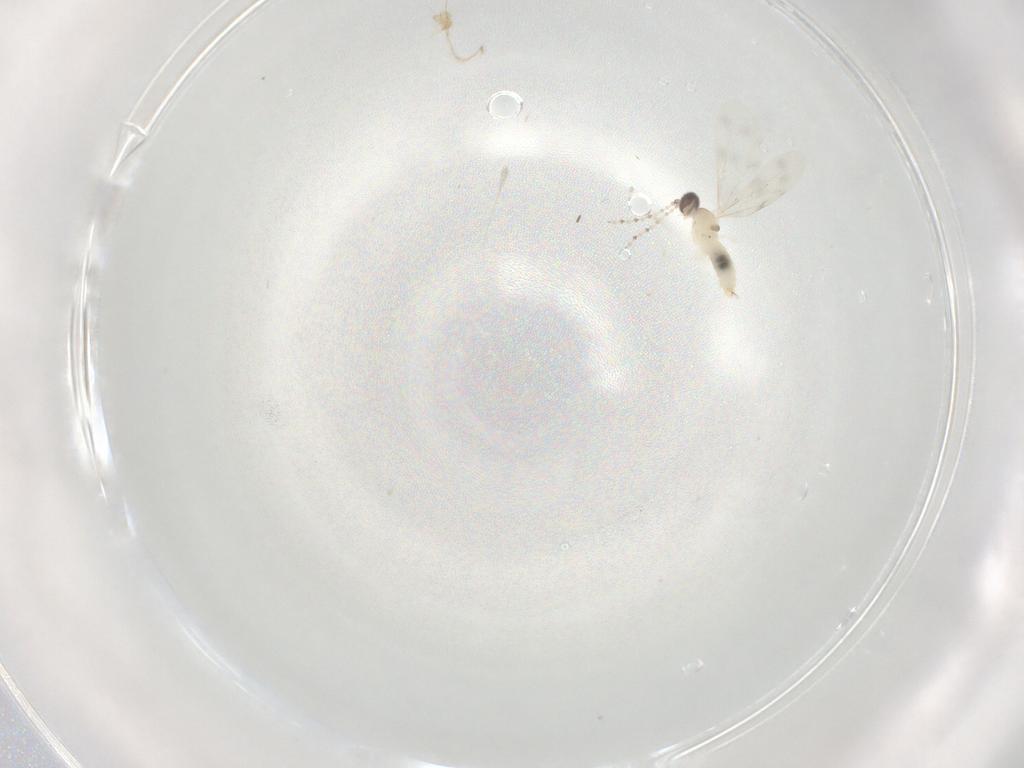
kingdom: Animalia
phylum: Arthropoda
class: Insecta
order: Diptera
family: Cecidomyiidae
